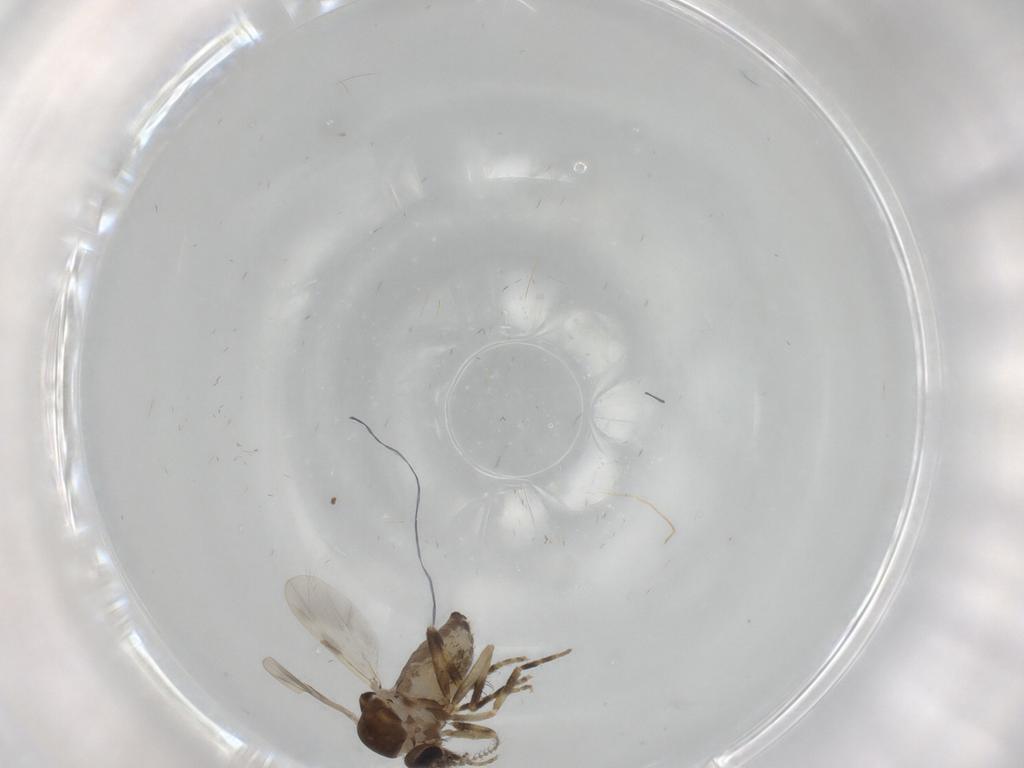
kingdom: Animalia
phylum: Arthropoda
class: Insecta
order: Diptera
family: Ceratopogonidae
